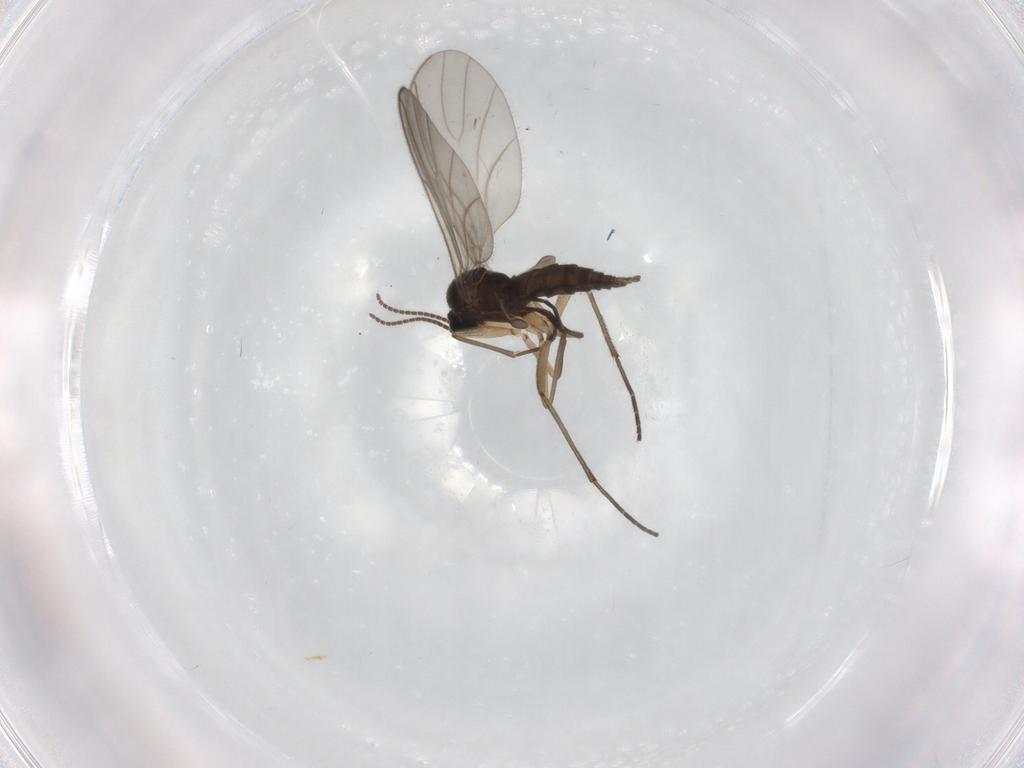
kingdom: Animalia
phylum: Arthropoda
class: Insecta
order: Diptera
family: Sciaridae
